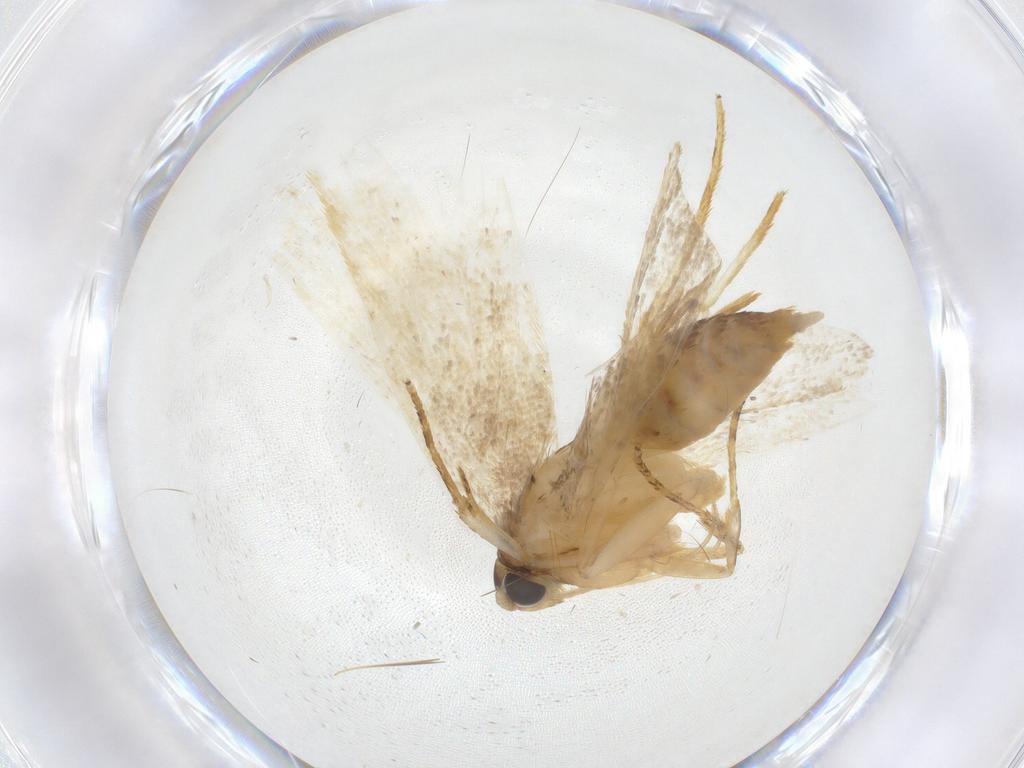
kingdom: Animalia
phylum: Arthropoda
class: Insecta
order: Lepidoptera
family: Lecithoceridae
